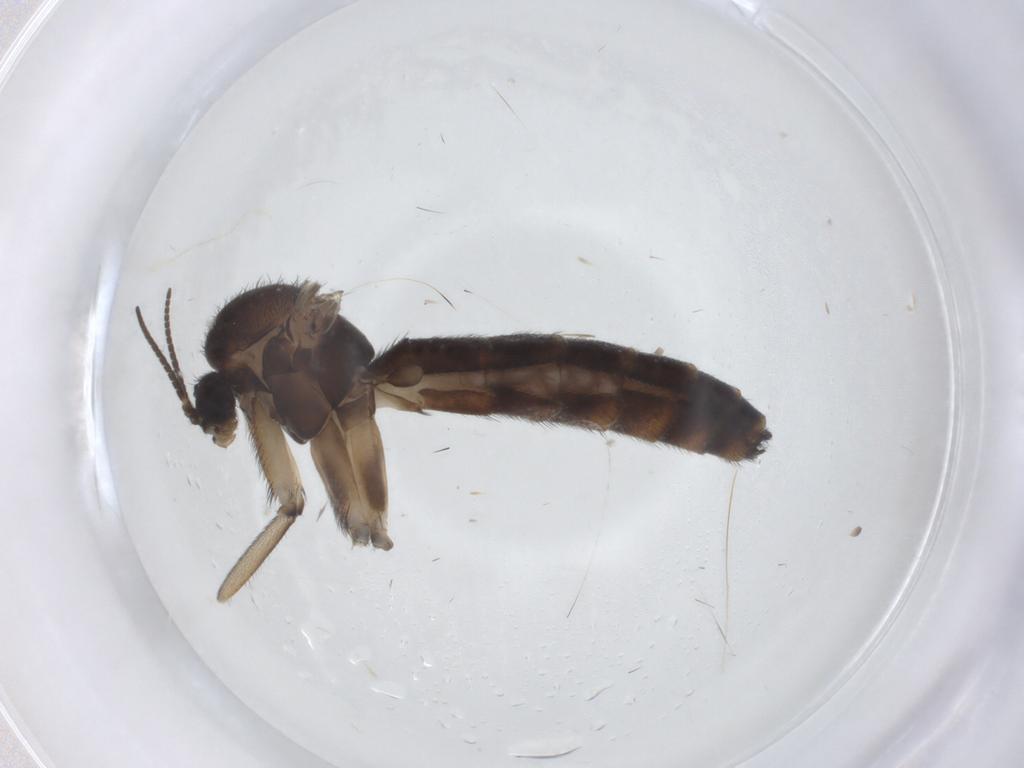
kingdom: Animalia
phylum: Arthropoda
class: Insecta
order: Diptera
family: Keroplatidae
